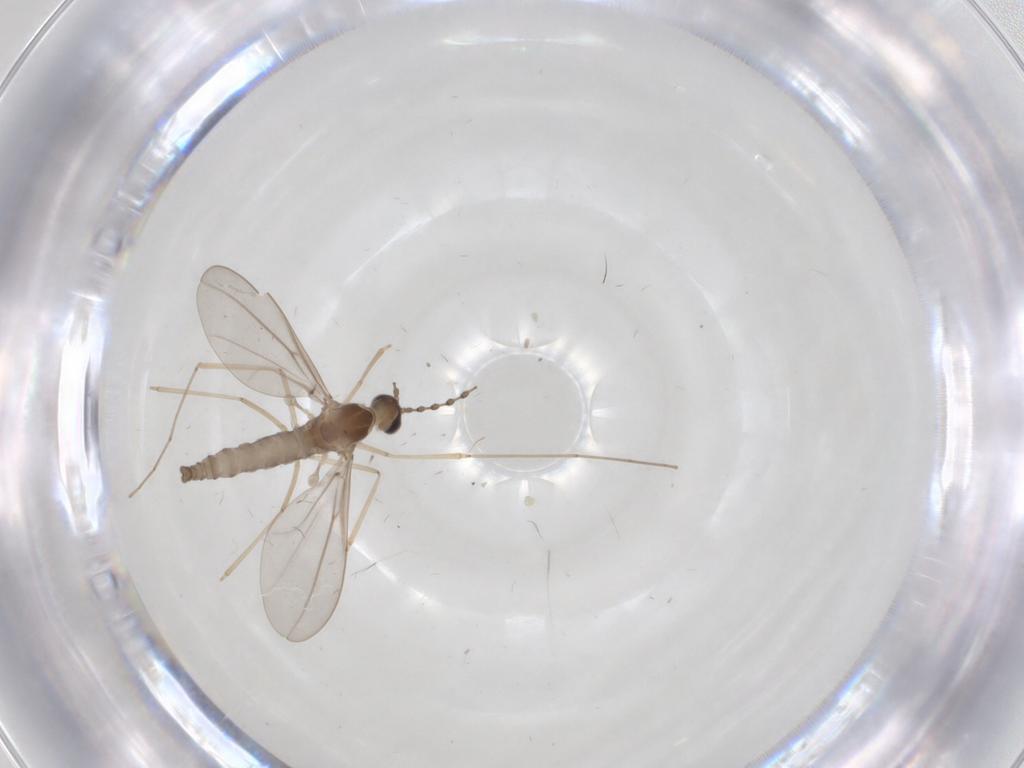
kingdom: Animalia
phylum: Arthropoda
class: Insecta
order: Diptera
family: Cecidomyiidae
